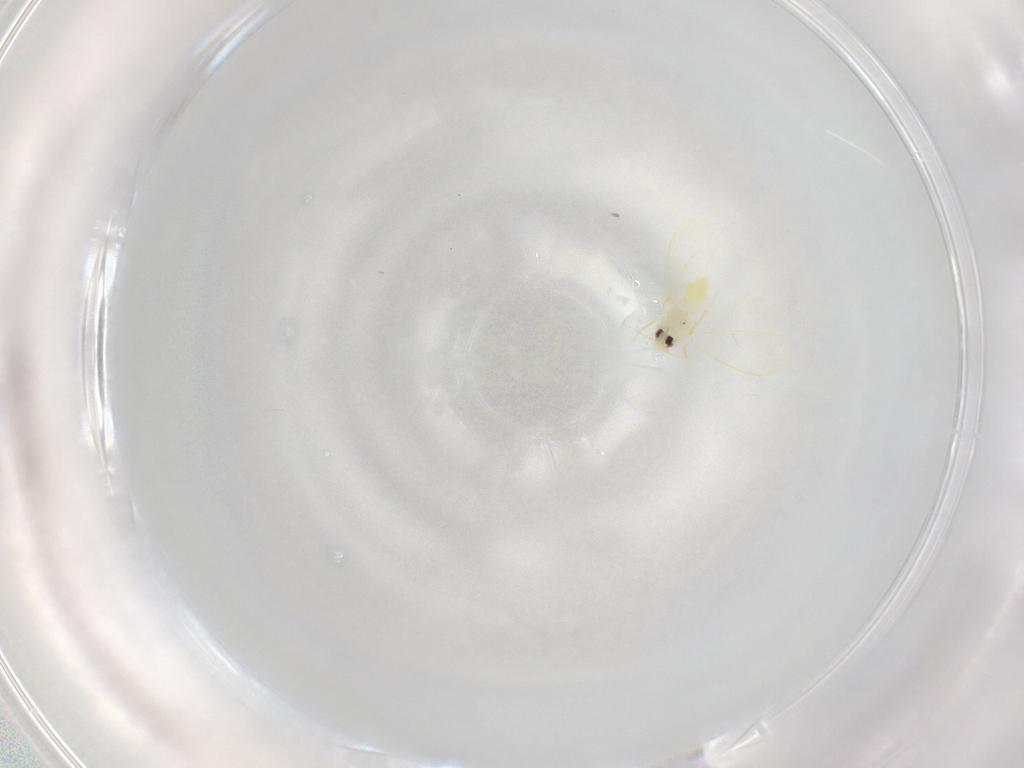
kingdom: Animalia
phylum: Arthropoda
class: Insecta
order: Hemiptera
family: Aleyrodidae
